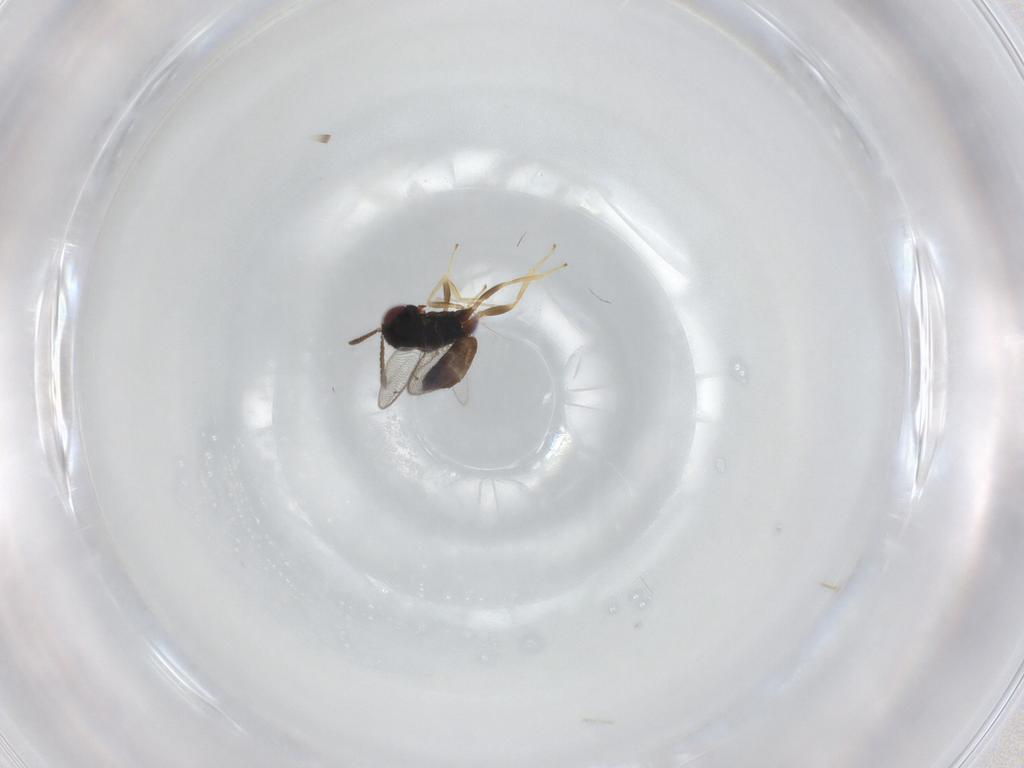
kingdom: Animalia
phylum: Arthropoda
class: Insecta
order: Hymenoptera
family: Pteromalidae
